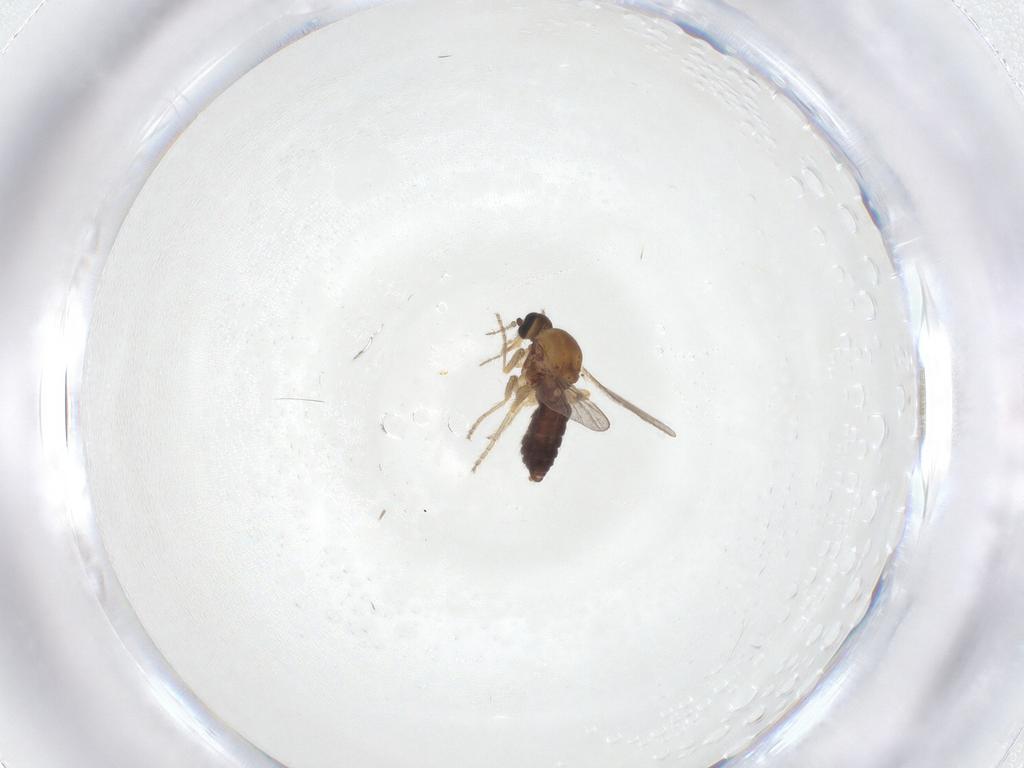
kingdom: Animalia
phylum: Arthropoda
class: Insecta
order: Diptera
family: Ceratopogonidae
